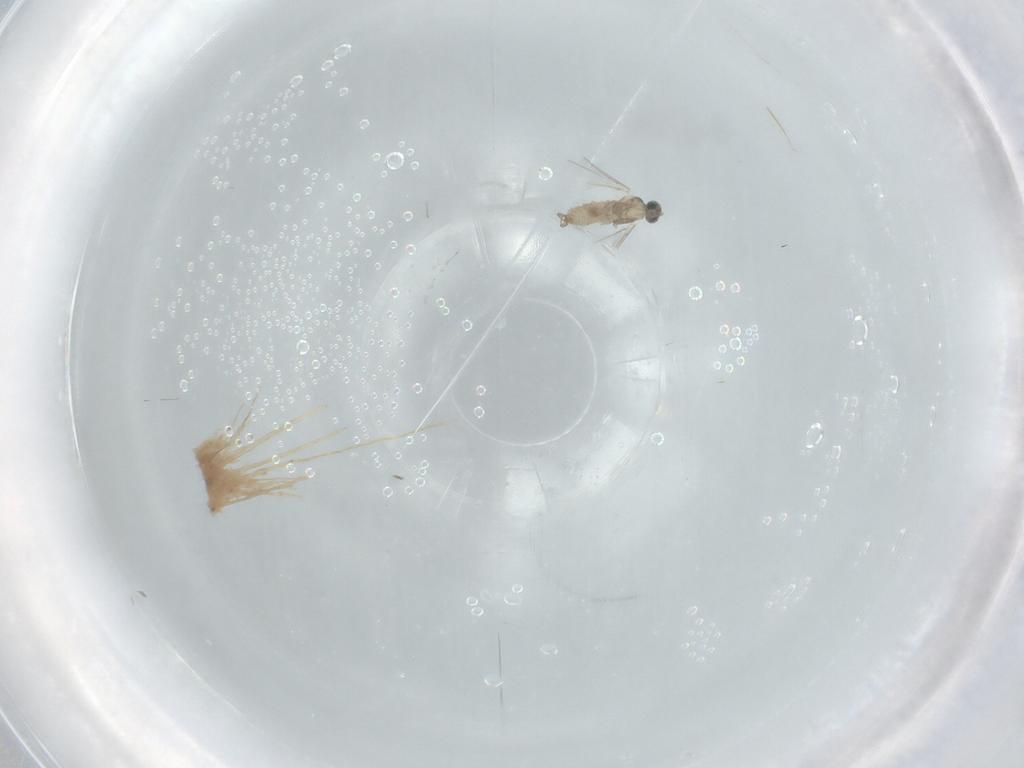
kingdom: Animalia
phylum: Arthropoda
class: Insecta
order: Diptera
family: Cecidomyiidae
